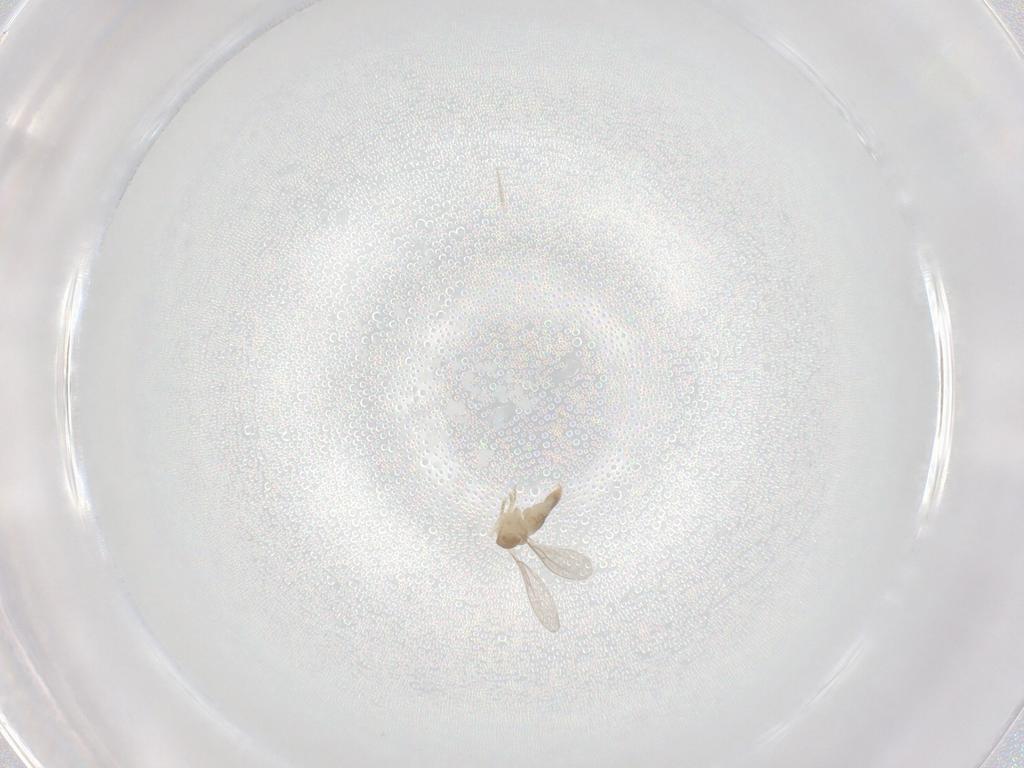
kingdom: Animalia
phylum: Arthropoda
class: Insecta
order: Diptera
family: Cecidomyiidae
